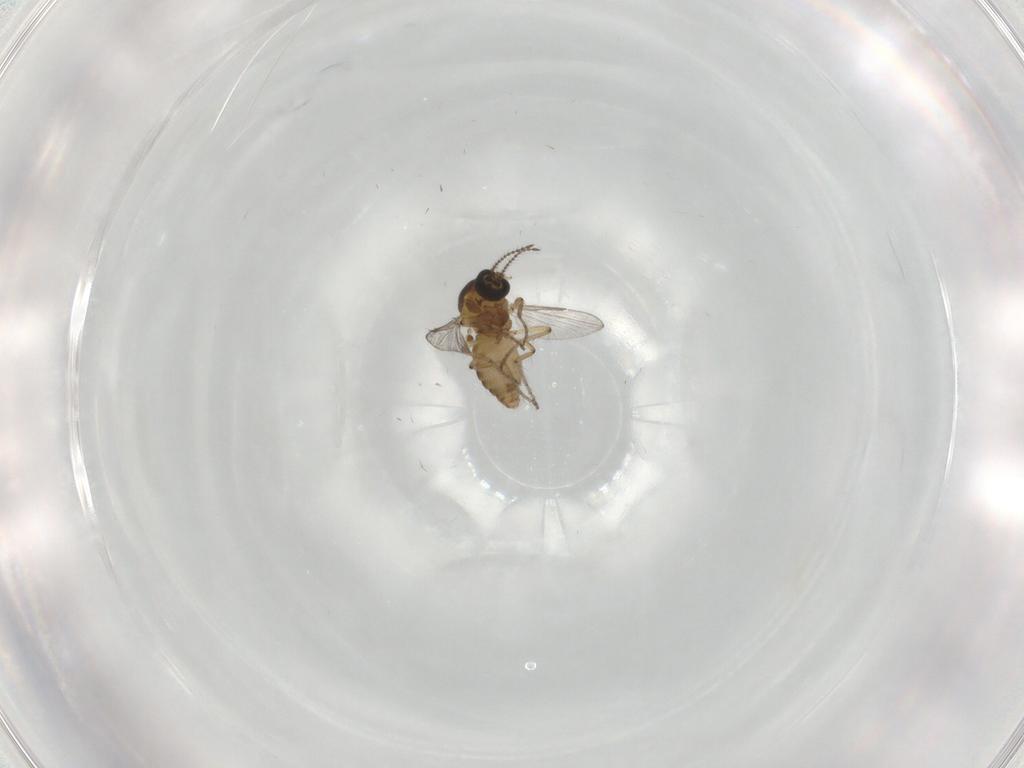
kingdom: Animalia
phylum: Arthropoda
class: Insecta
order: Diptera
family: Ceratopogonidae
